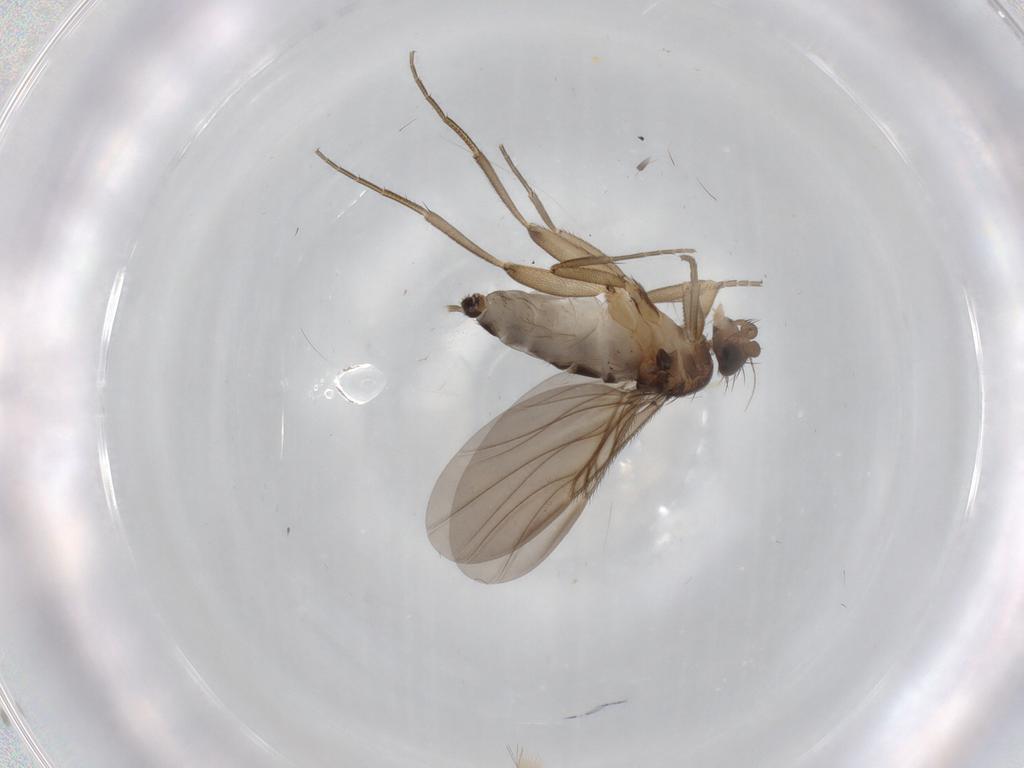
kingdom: Animalia
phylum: Arthropoda
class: Insecta
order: Diptera
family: Phoridae
